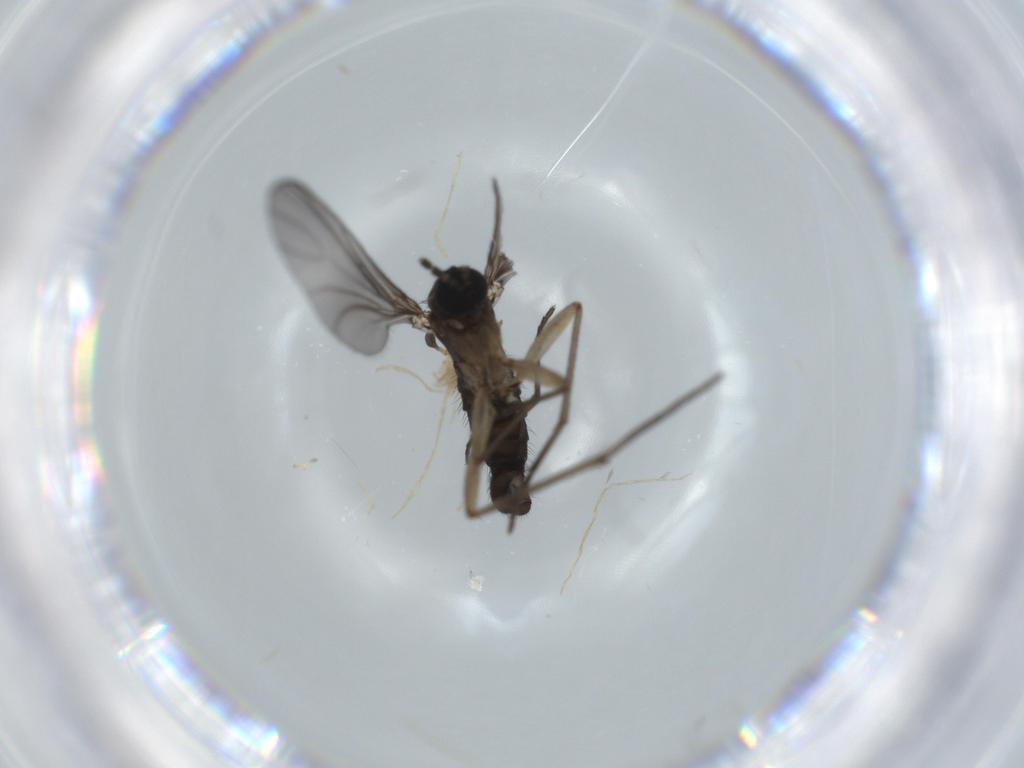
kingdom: Animalia
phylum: Arthropoda
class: Insecta
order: Diptera
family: Sciaridae
